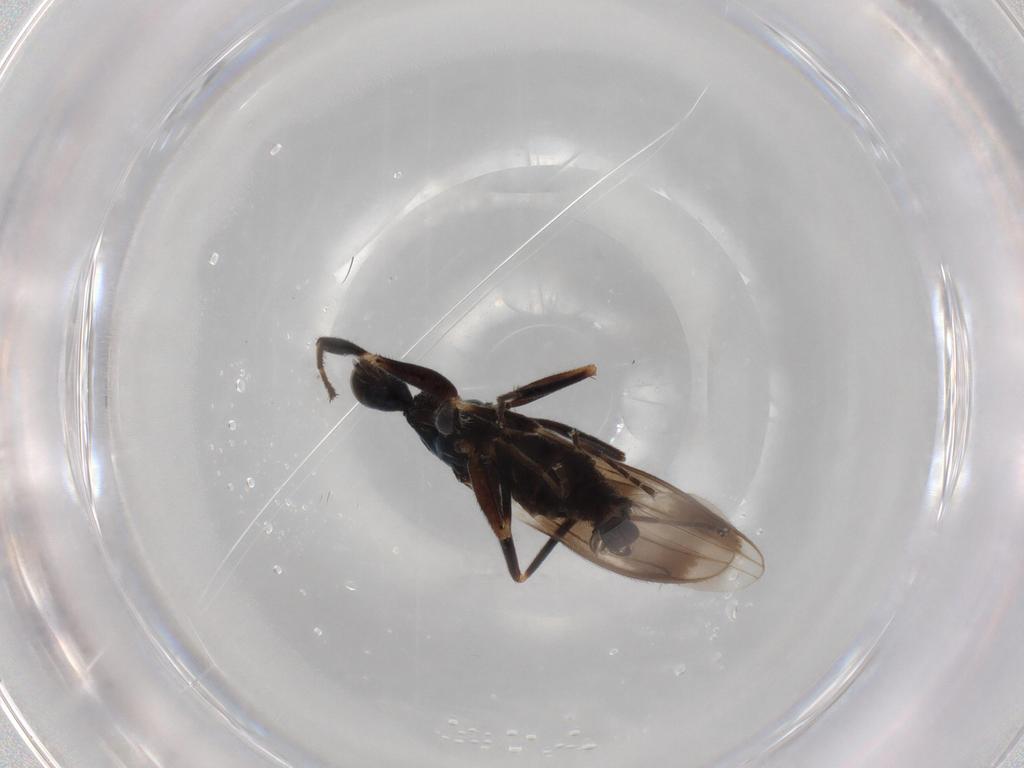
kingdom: Animalia
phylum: Arthropoda
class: Insecta
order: Diptera
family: Hybotidae
